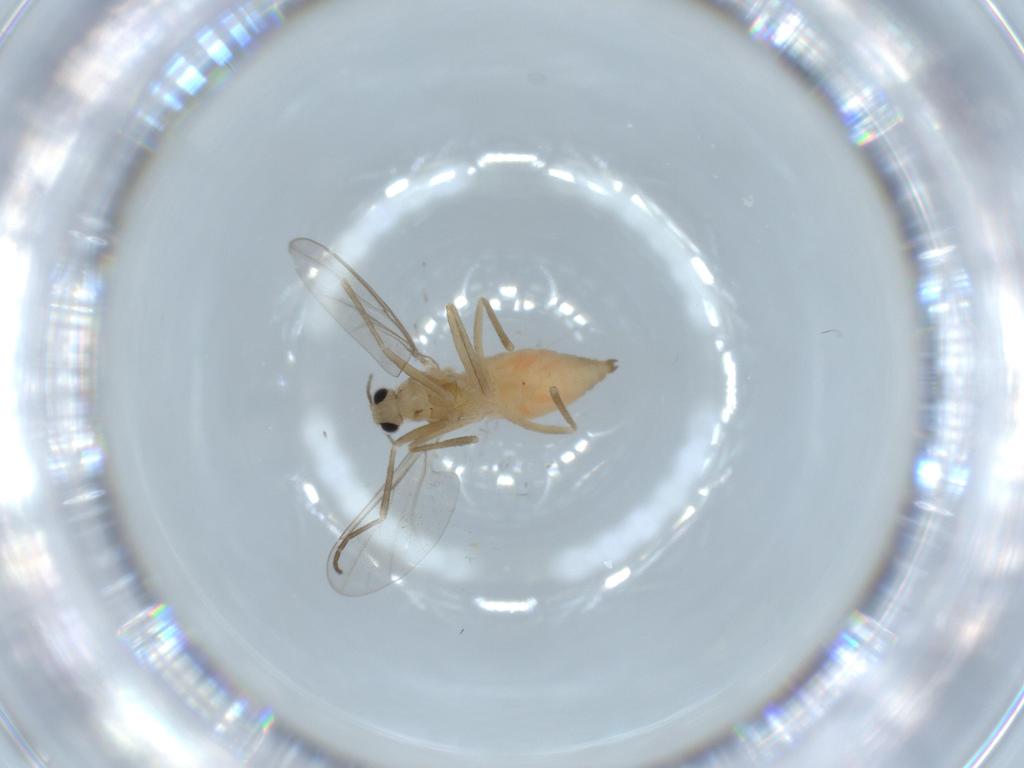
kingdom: Animalia
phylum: Arthropoda
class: Insecta
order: Diptera
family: Cecidomyiidae
